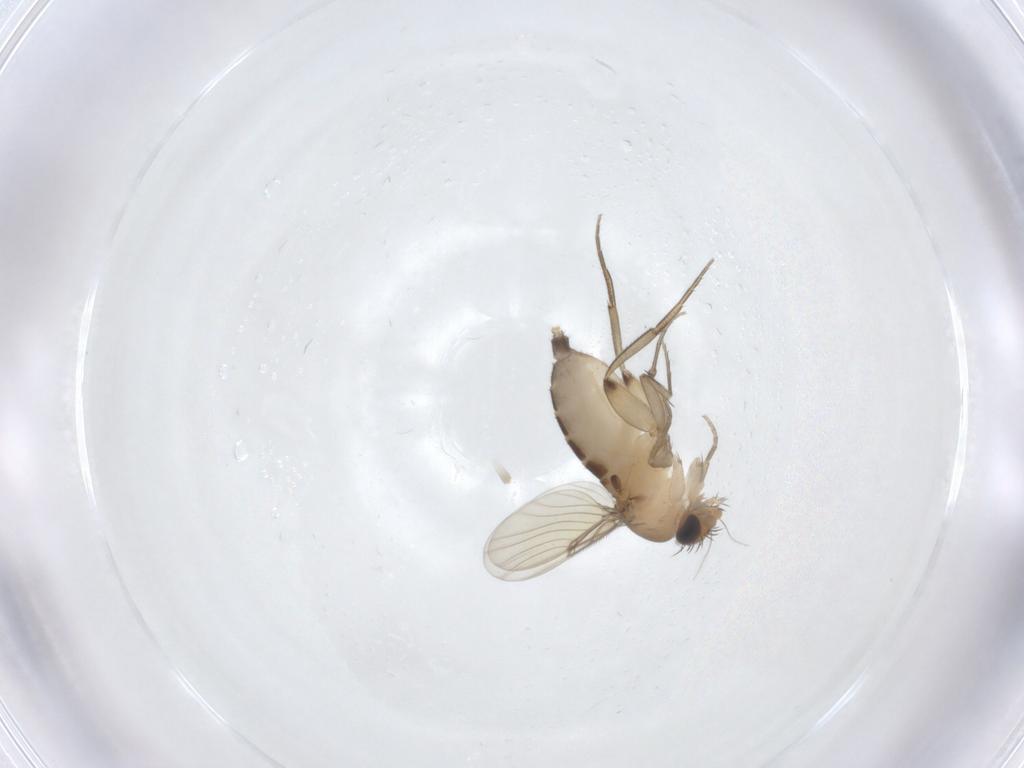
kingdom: Animalia
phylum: Arthropoda
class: Insecta
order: Diptera
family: Phoridae
